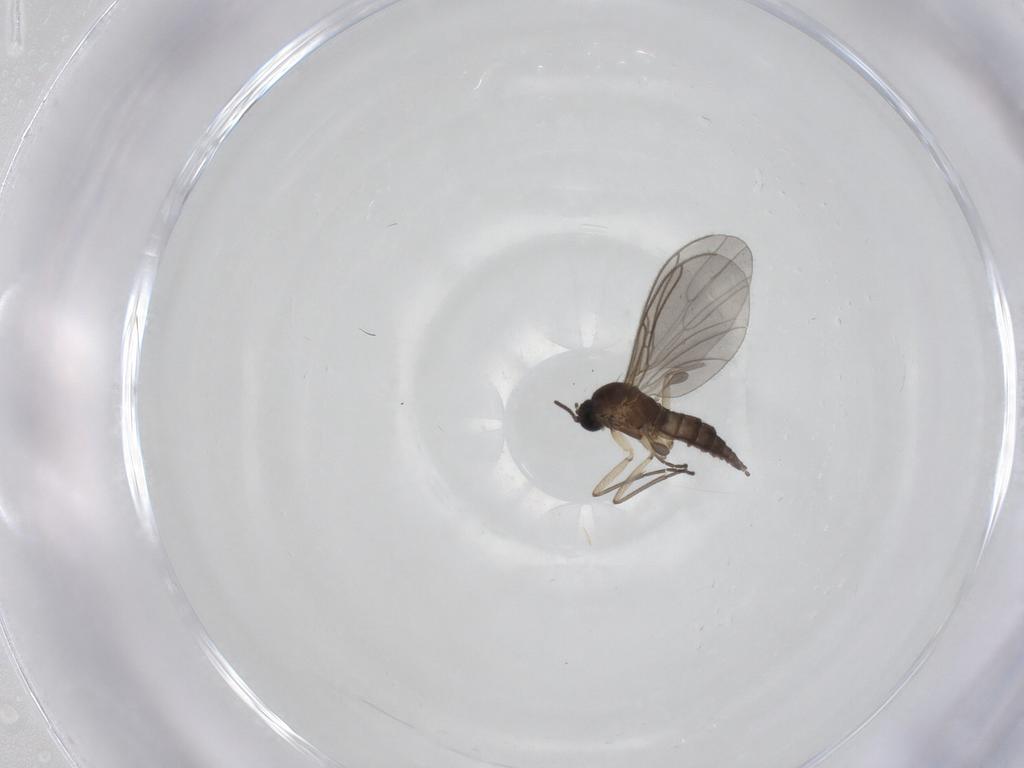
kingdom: Animalia
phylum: Arthropoda
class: Insecta
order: Diptera
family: Sciaridae
